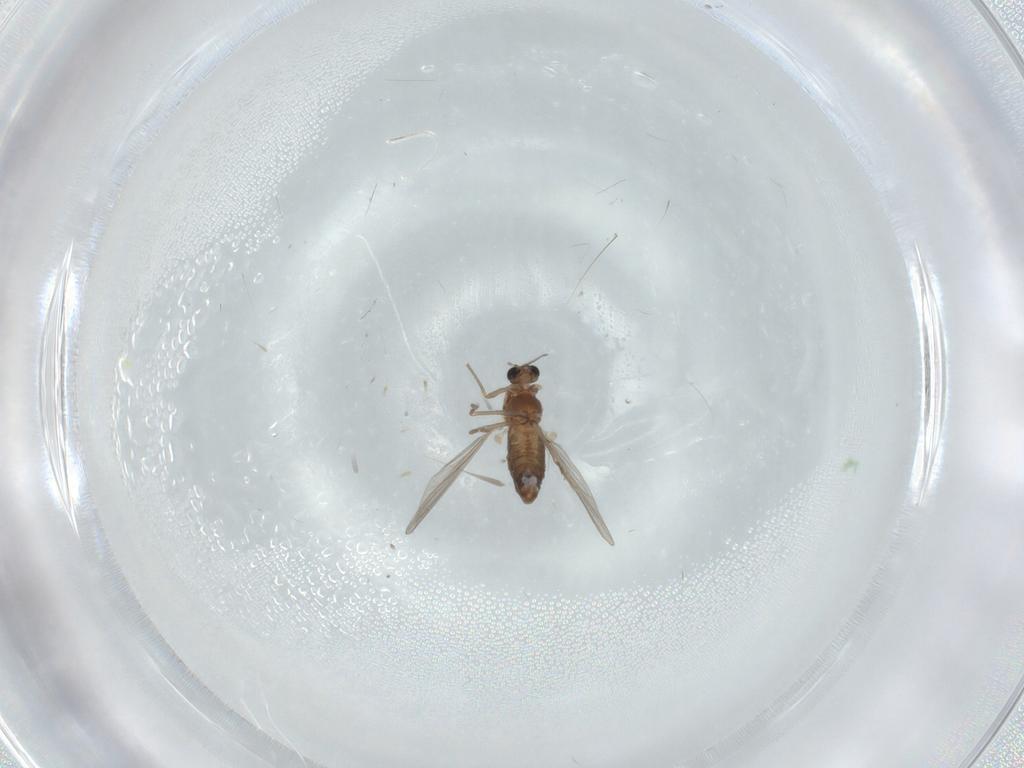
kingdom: Animalia
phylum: Arthropoda
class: Insecta
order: Diptera
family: Chironomidae
